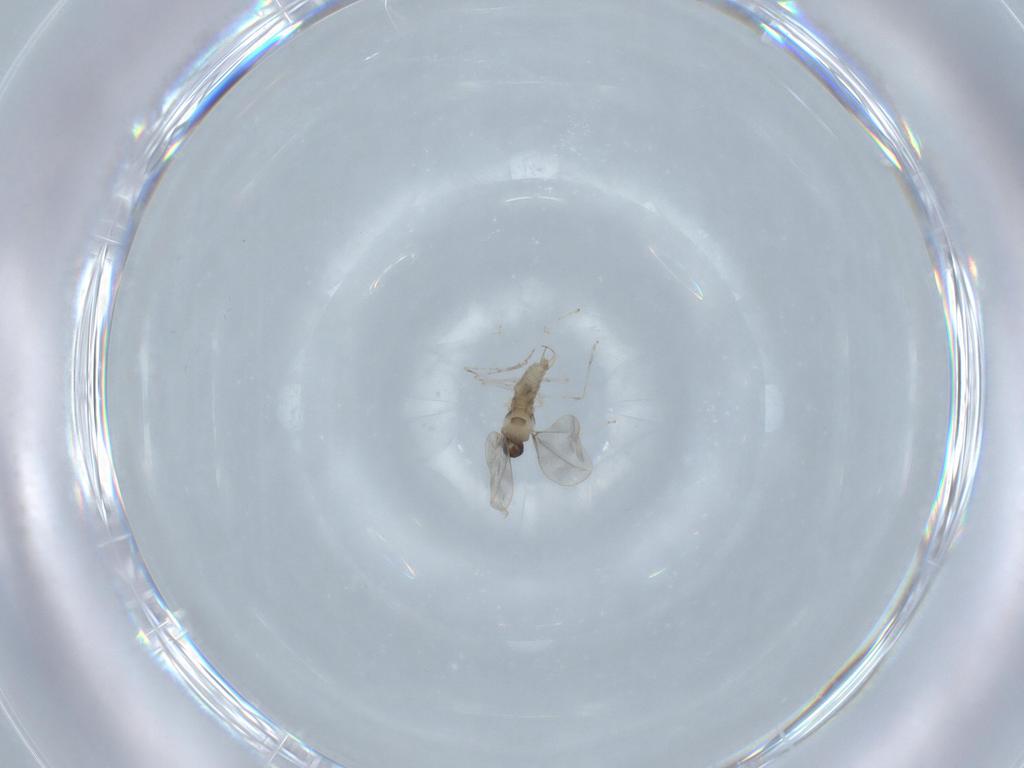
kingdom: Animalia
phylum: Arthropoda
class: Insecta
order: Diptera
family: Cecidomyiidae
